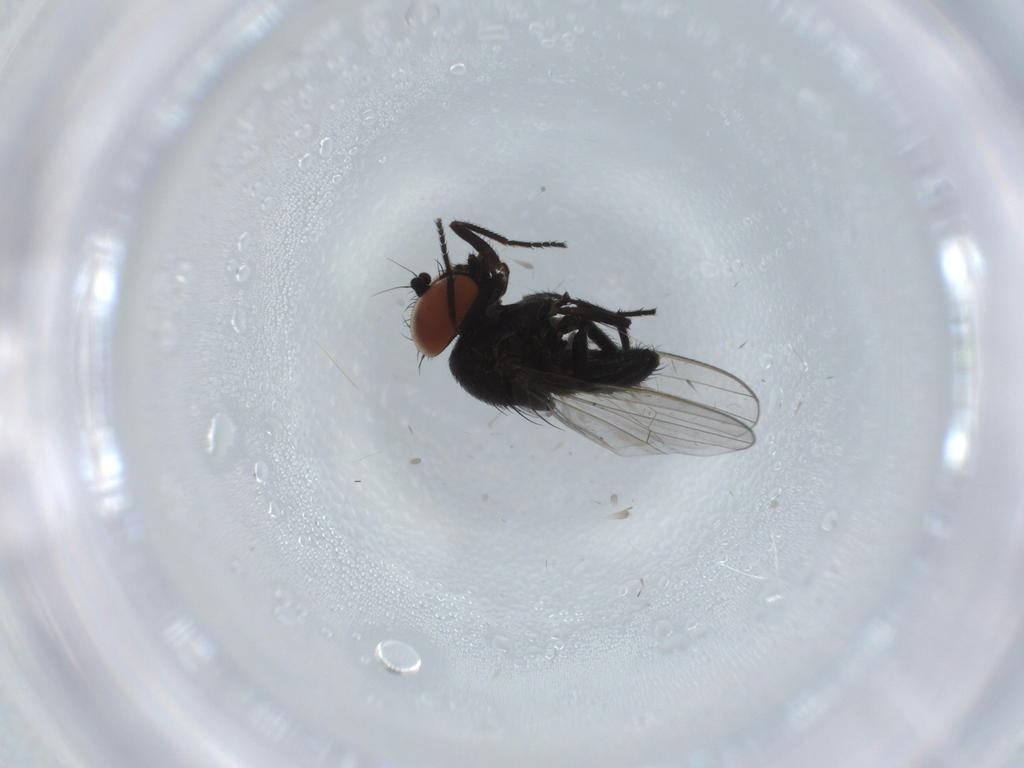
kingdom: Animalia
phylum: Arthropoda
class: Insecta
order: Diptera
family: Milichiidae
